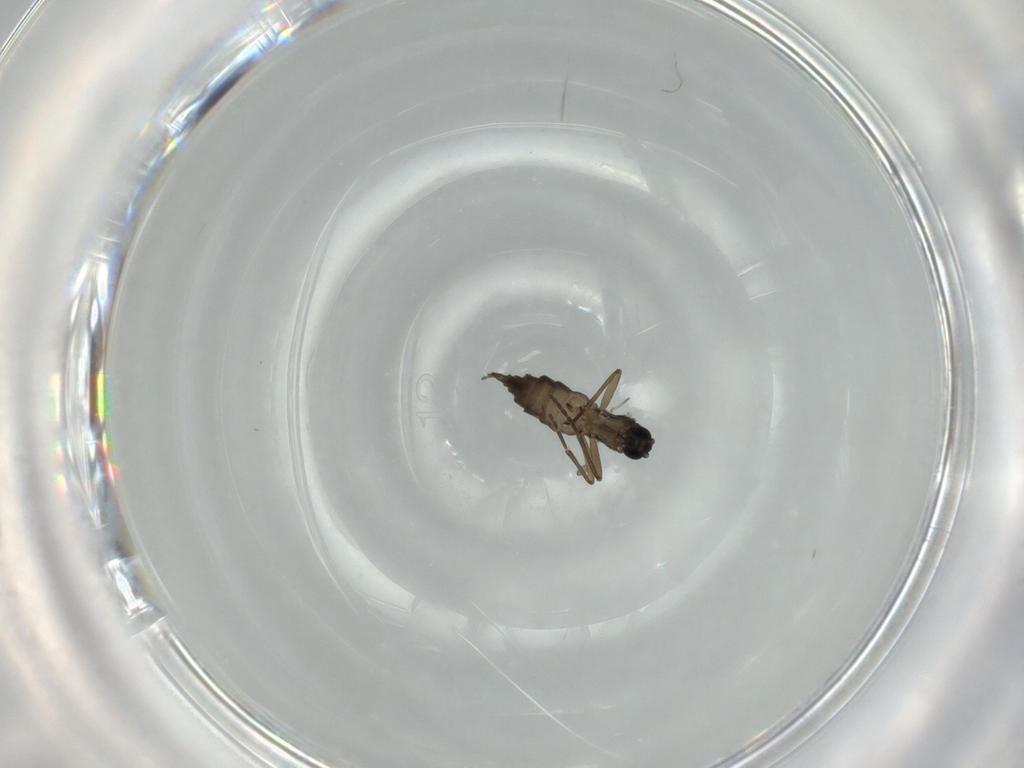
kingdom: Animalia
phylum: Arthropoda
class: Insecta
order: Diptera
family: Sciaridae
